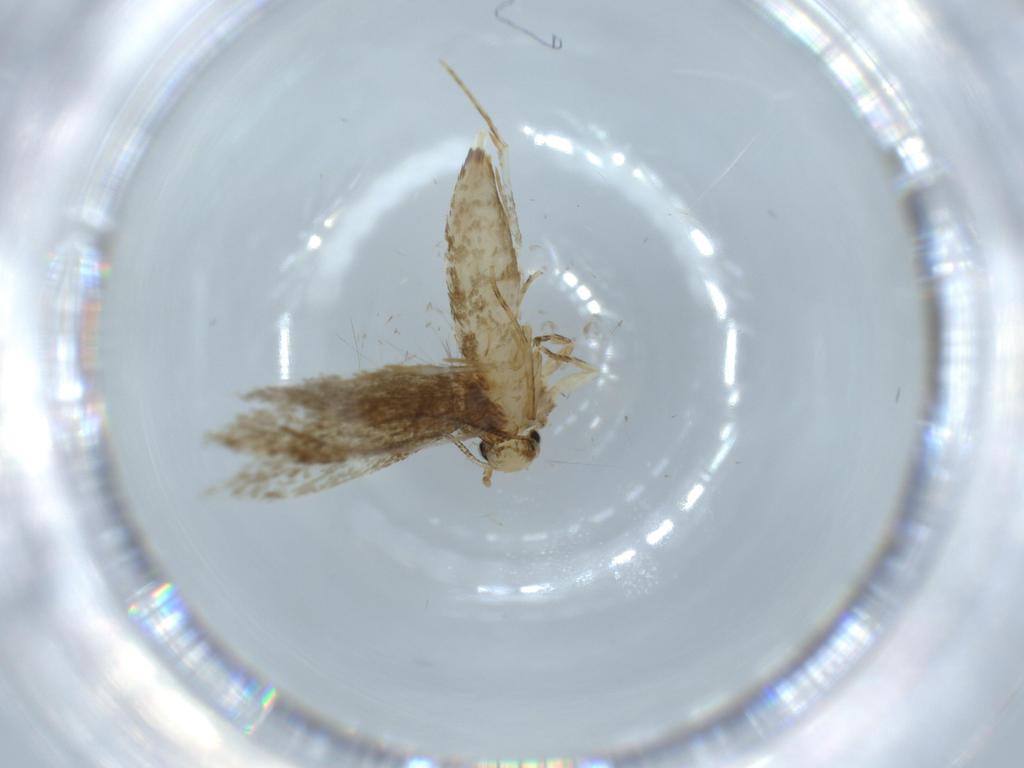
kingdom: Animalia
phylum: Arthropoda
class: Insecta
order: Lepidoptera
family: Tineidae
